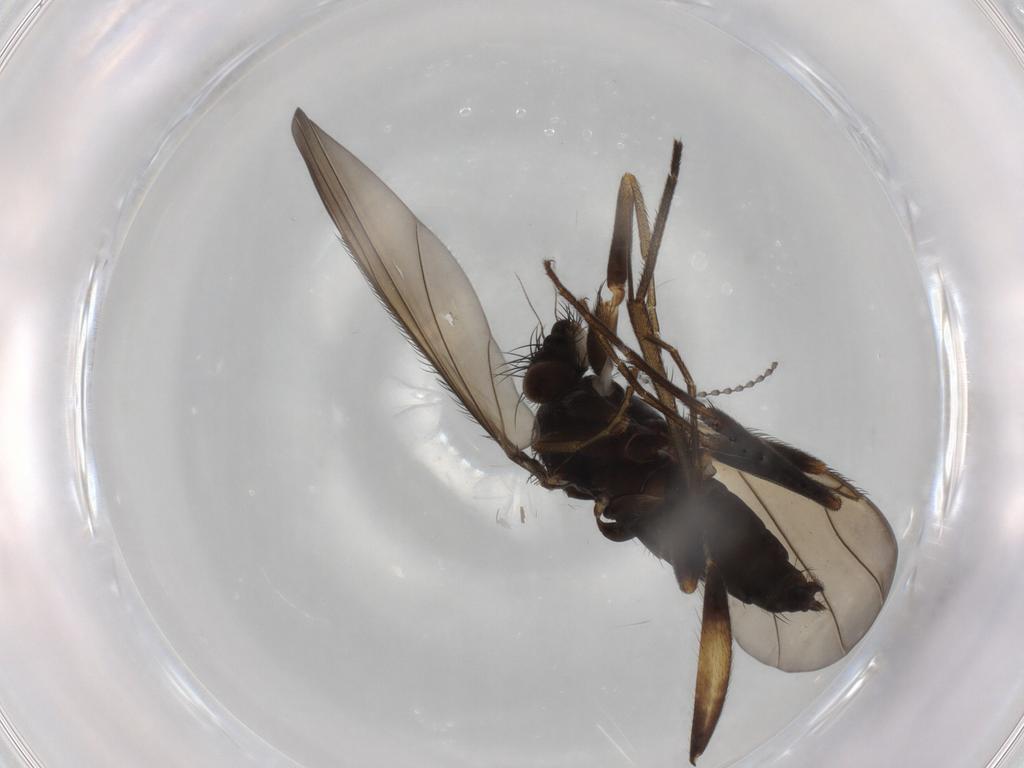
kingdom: Animalia
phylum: Arthropoda
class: Insecta
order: Diptera
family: Phoridae
